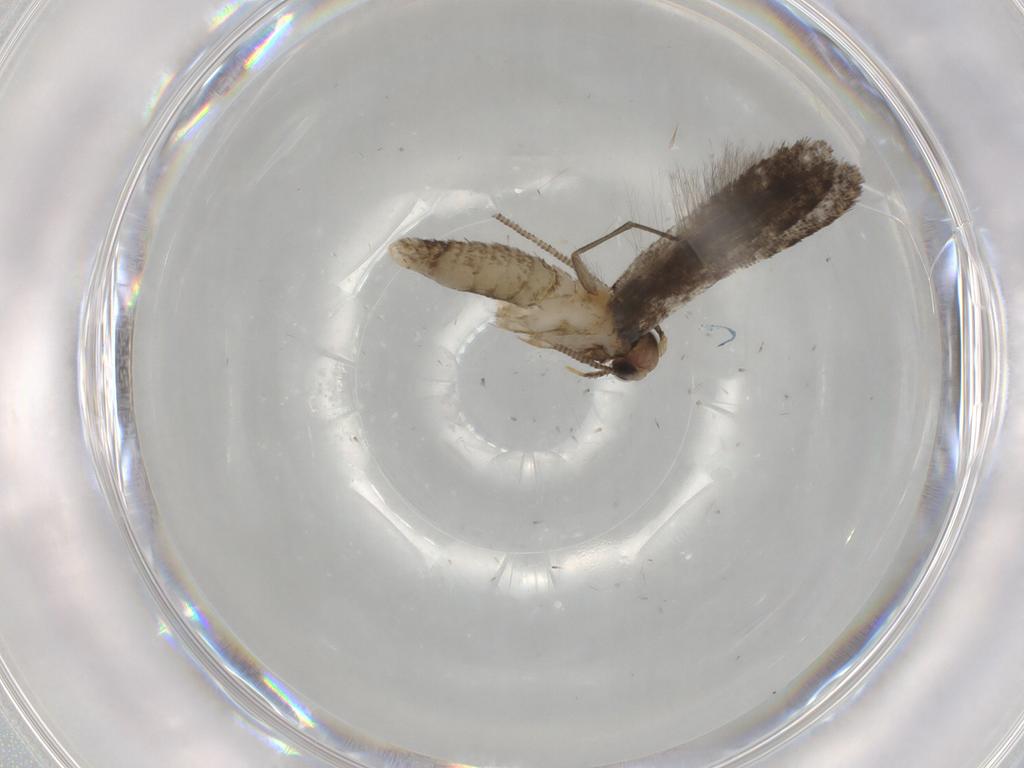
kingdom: Animalia
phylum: Arthropoda
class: Insecta
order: Lepidoptera
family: Tineidae
